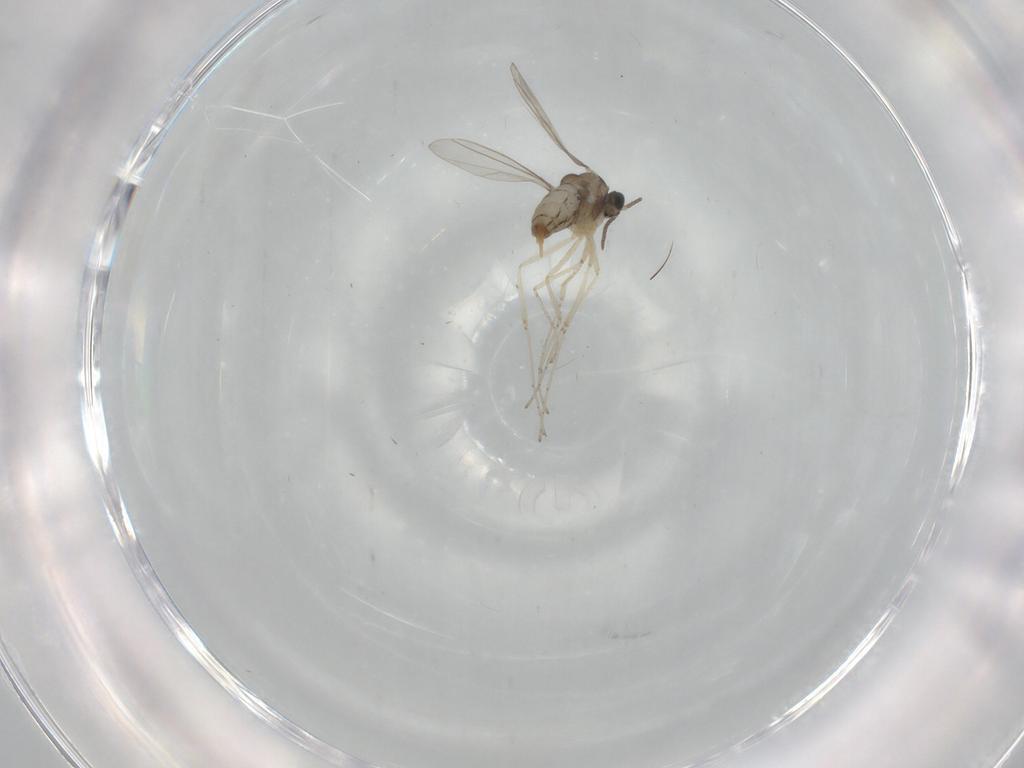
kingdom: Animalia
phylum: Arthropoda
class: Insecta
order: Diptera
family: Cecidomyiidae
